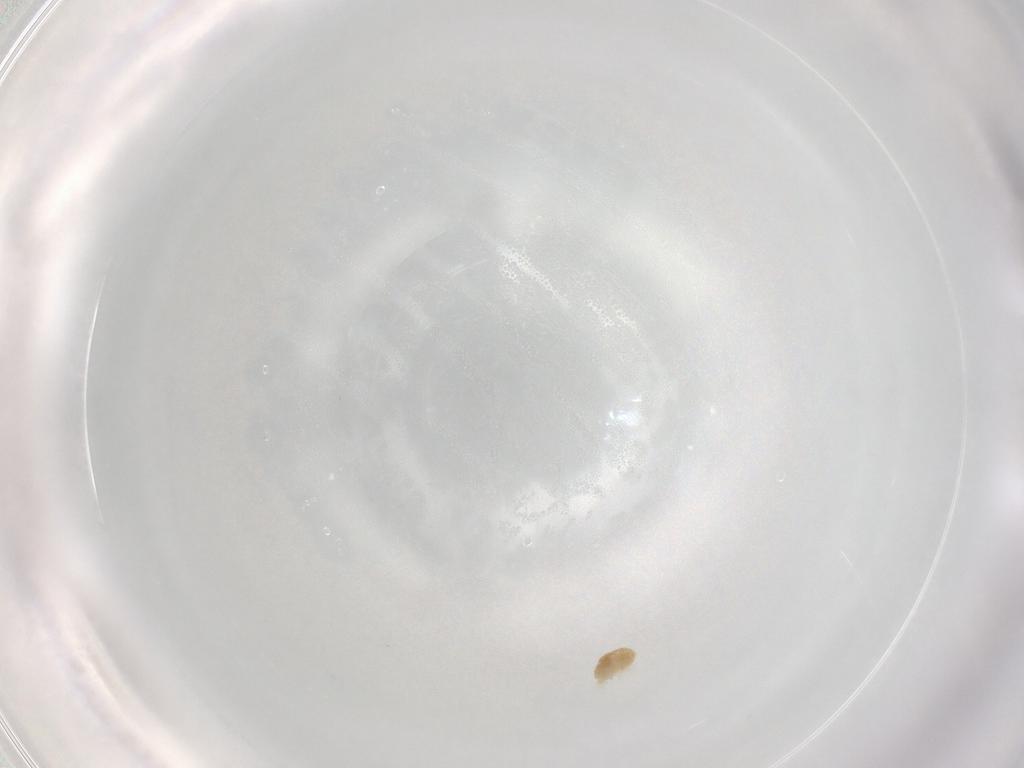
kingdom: Animalia
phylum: Arthropoda
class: Arachnida
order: Trombidiformes
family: Eupodidae
